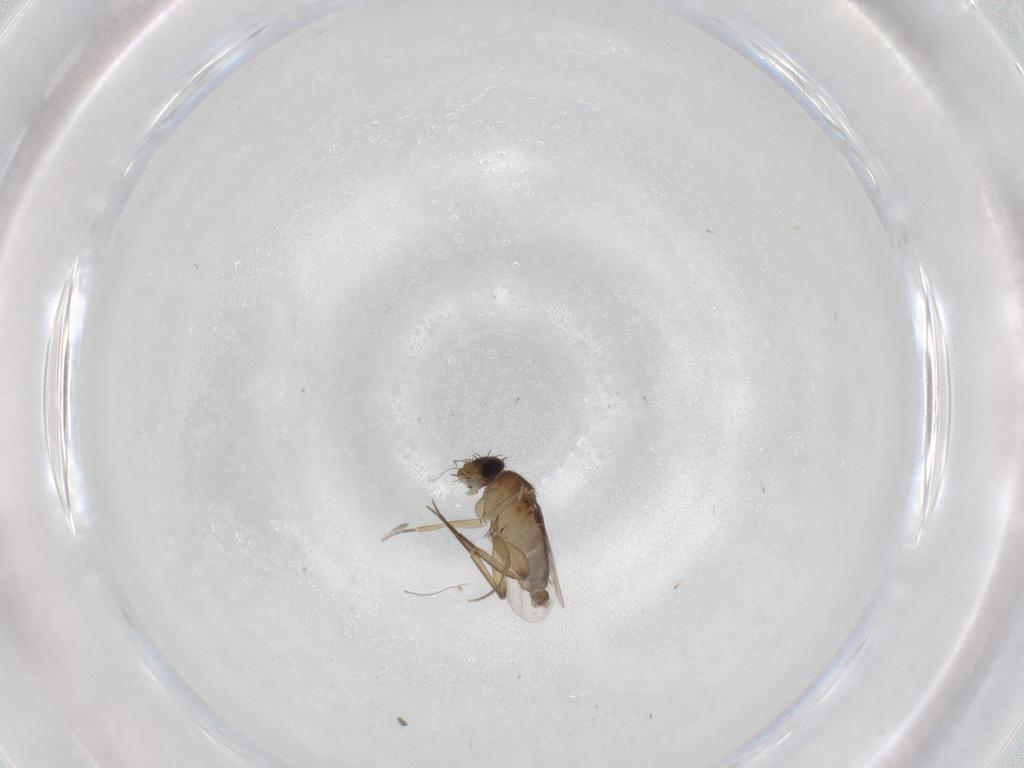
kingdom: Animalia
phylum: Arthropoda
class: Insecta
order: Diptera
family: Phoridae
